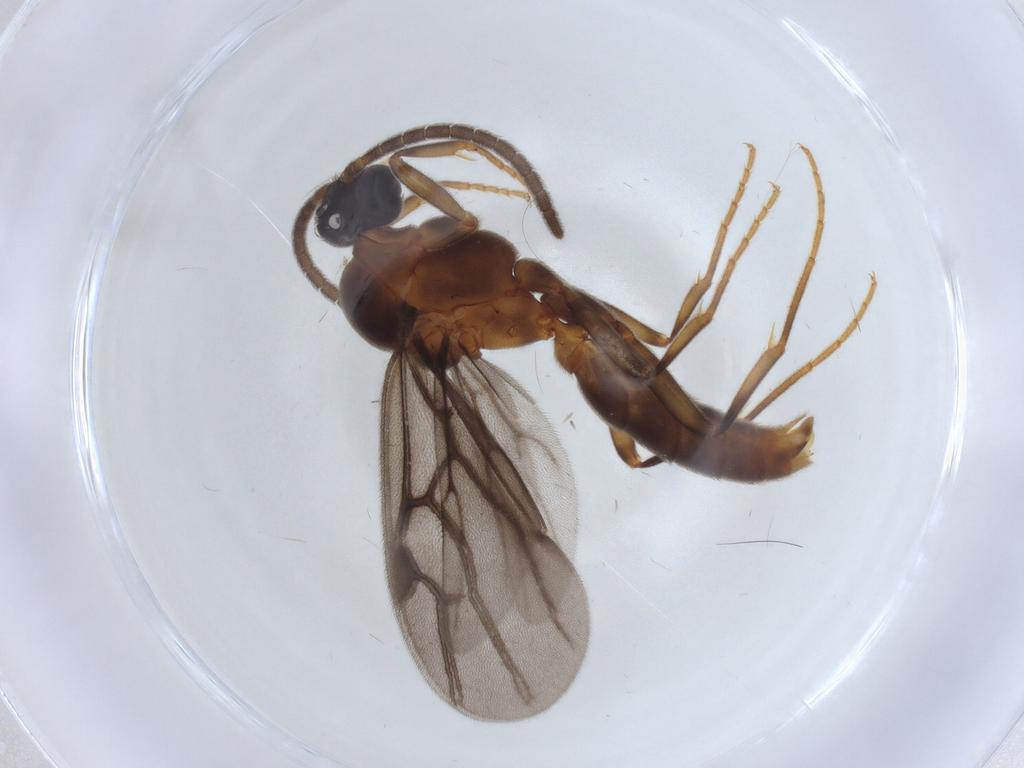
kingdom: Animalia
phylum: Arthropoda
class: Insecta
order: Hymenoptera
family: Formicidae
